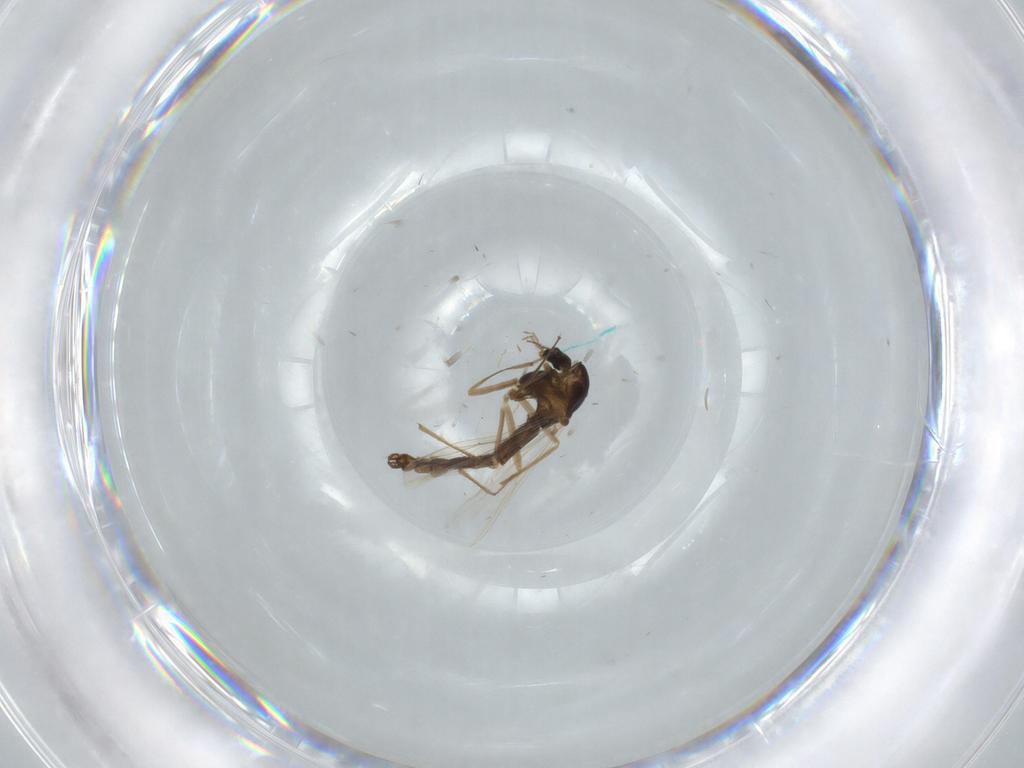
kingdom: Animalia
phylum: Arthropoda
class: Insecta
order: Diptera
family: Chironomidae
